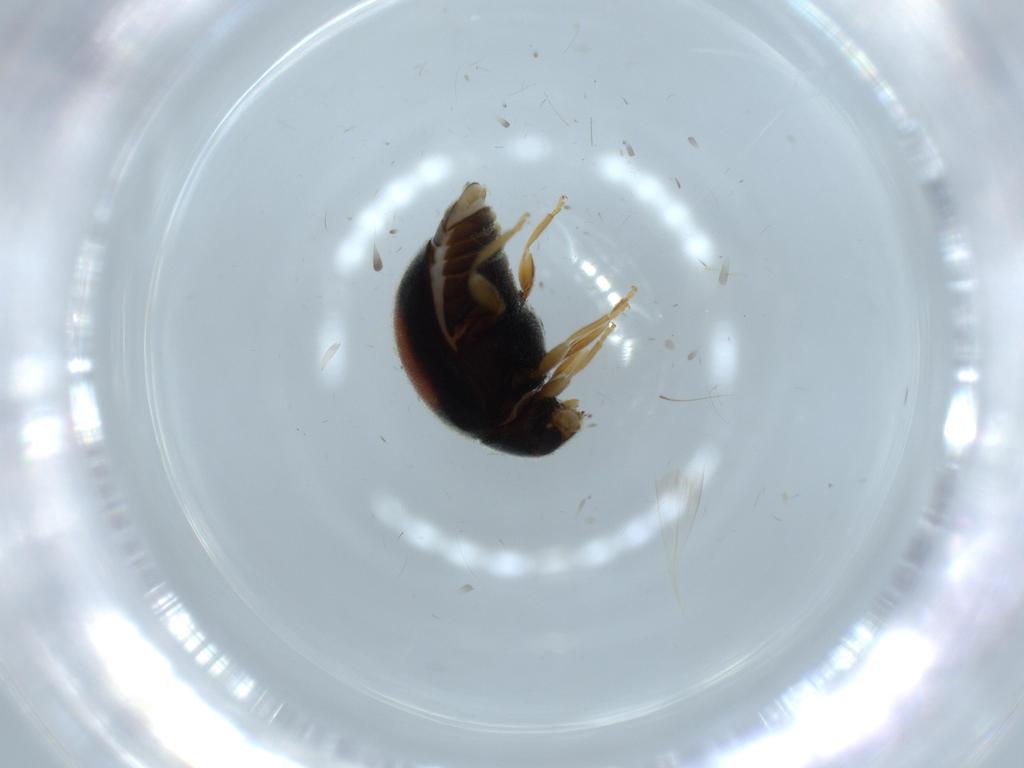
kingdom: Animalia
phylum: Arthropoda
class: Insecta
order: Coleoptera
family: Coccinellidae
